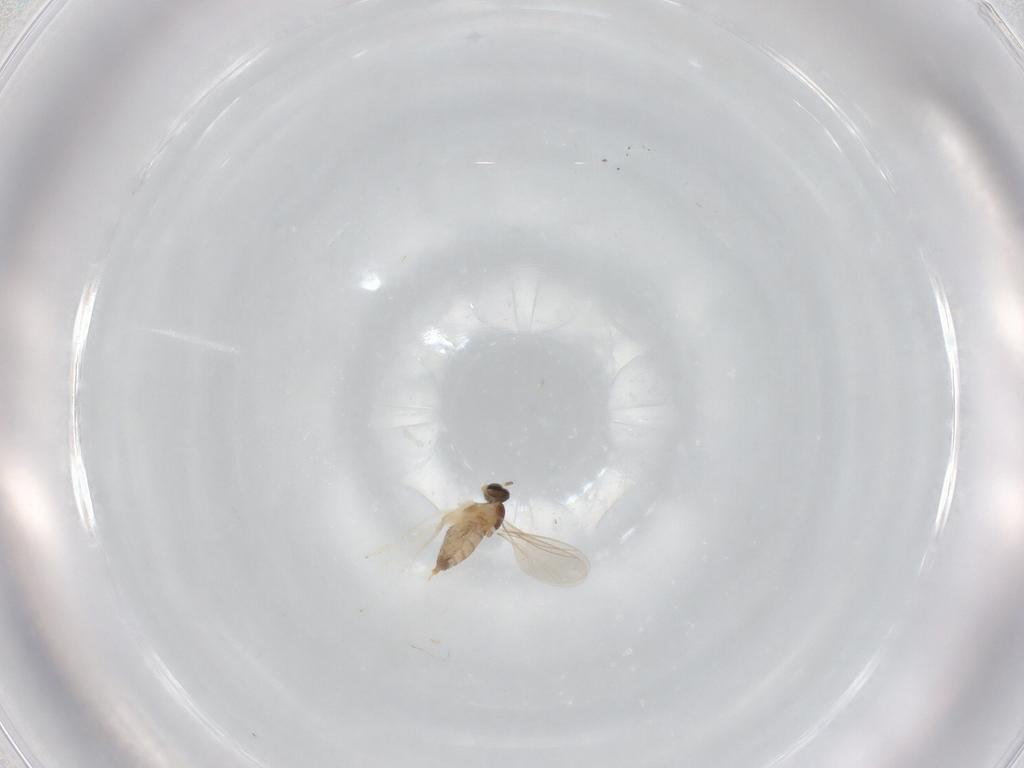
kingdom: Animalia
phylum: Arthropoda
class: Insecta
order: Diptera
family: Cecidomyiidae
